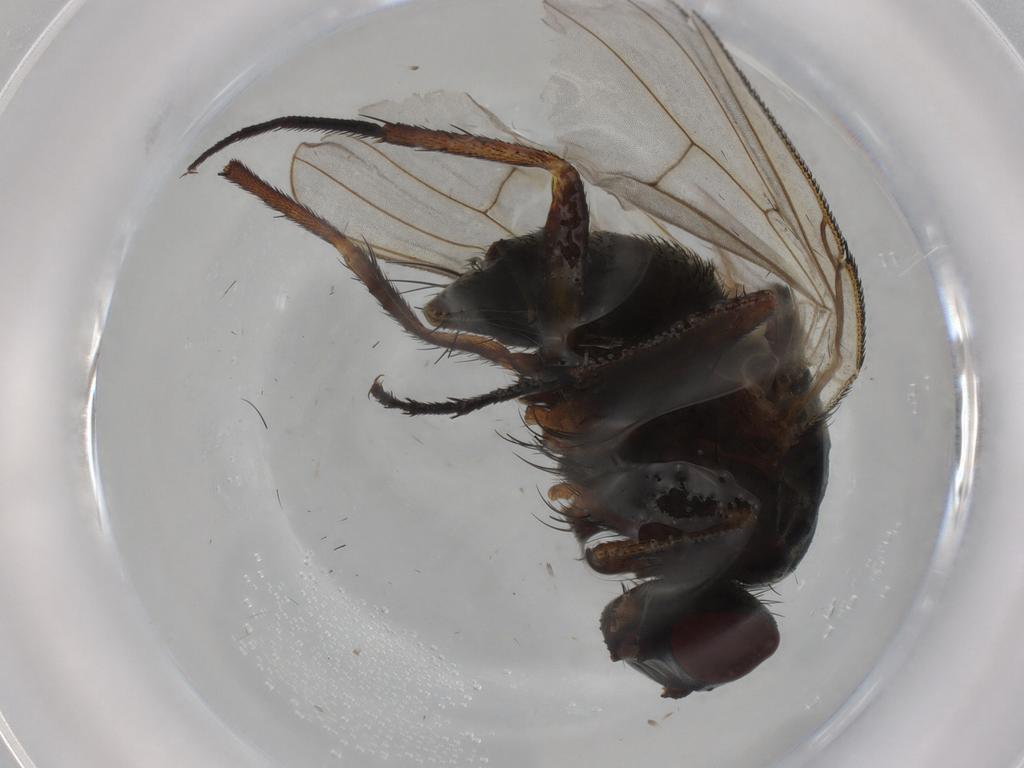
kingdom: Animalia
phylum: Arthropoda
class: Insecta
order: Diptera
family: Muscidae
